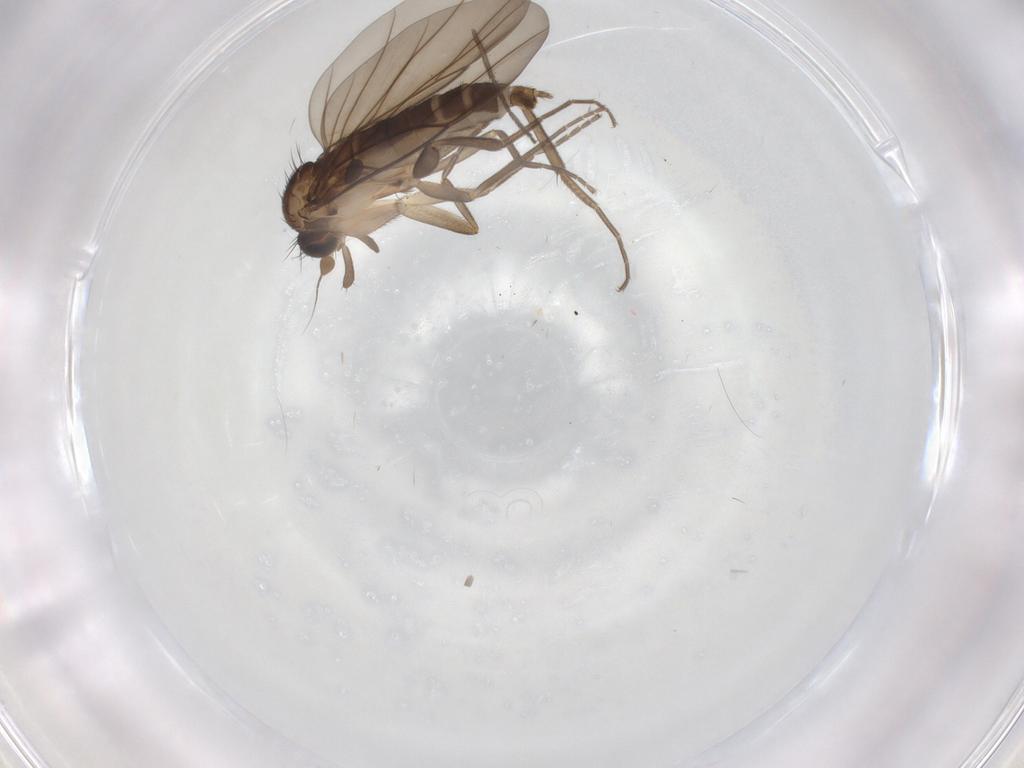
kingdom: Animalia
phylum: Arthropoda
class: Insecta
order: Diptera
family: Chironomidae
